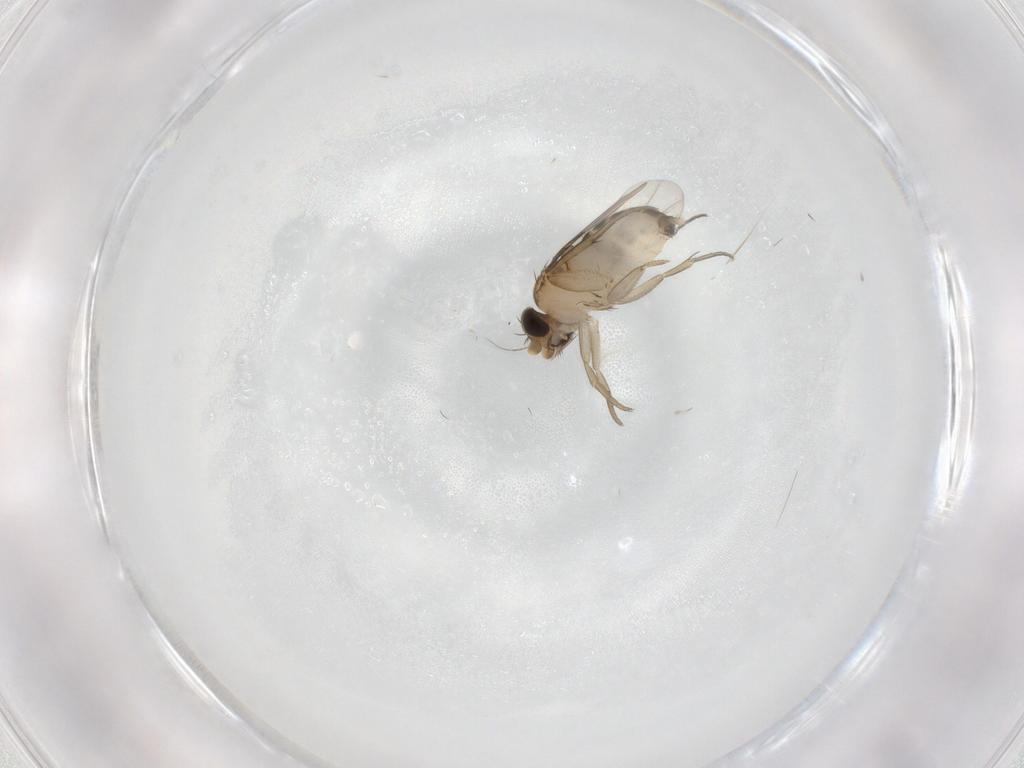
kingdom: Animalia
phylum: Arthropoda
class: Insecta
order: Diptera
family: Phoridae
